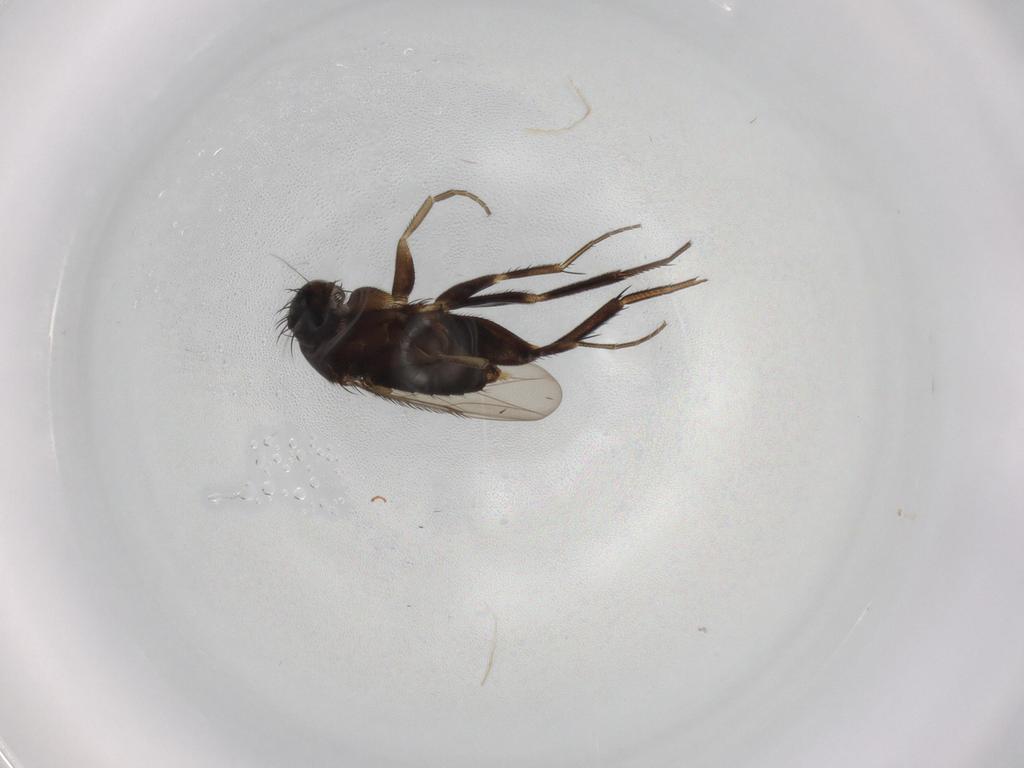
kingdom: Animalia
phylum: Arthropoda
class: Insecta
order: Diptera
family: Phoridae
